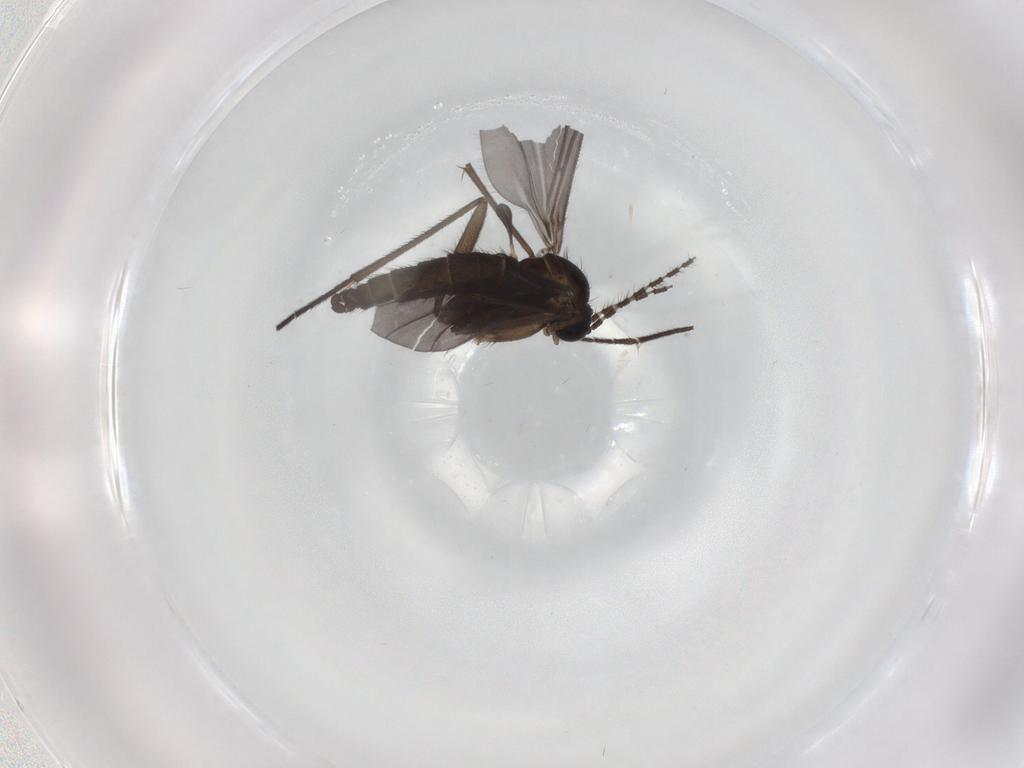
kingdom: Animalia
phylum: Arthropoda
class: Insecta
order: Diptera
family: Sciaridae
